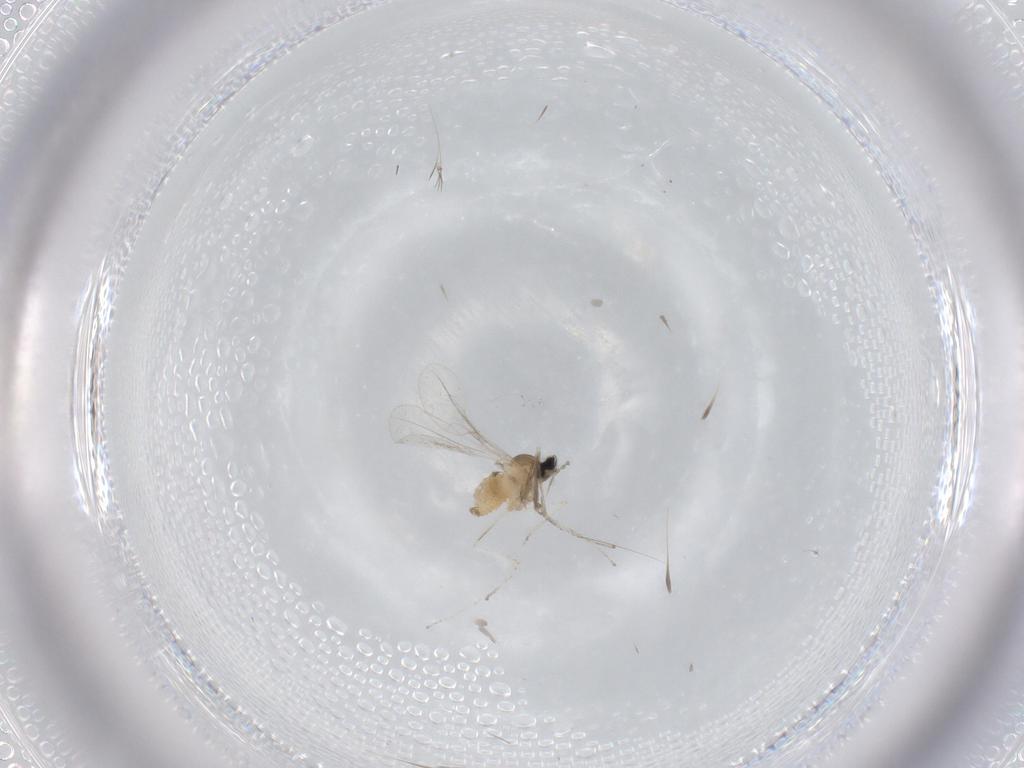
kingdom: Animalia
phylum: Arthropoda
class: Insecta
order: Diptera
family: Cecidomyiidae
